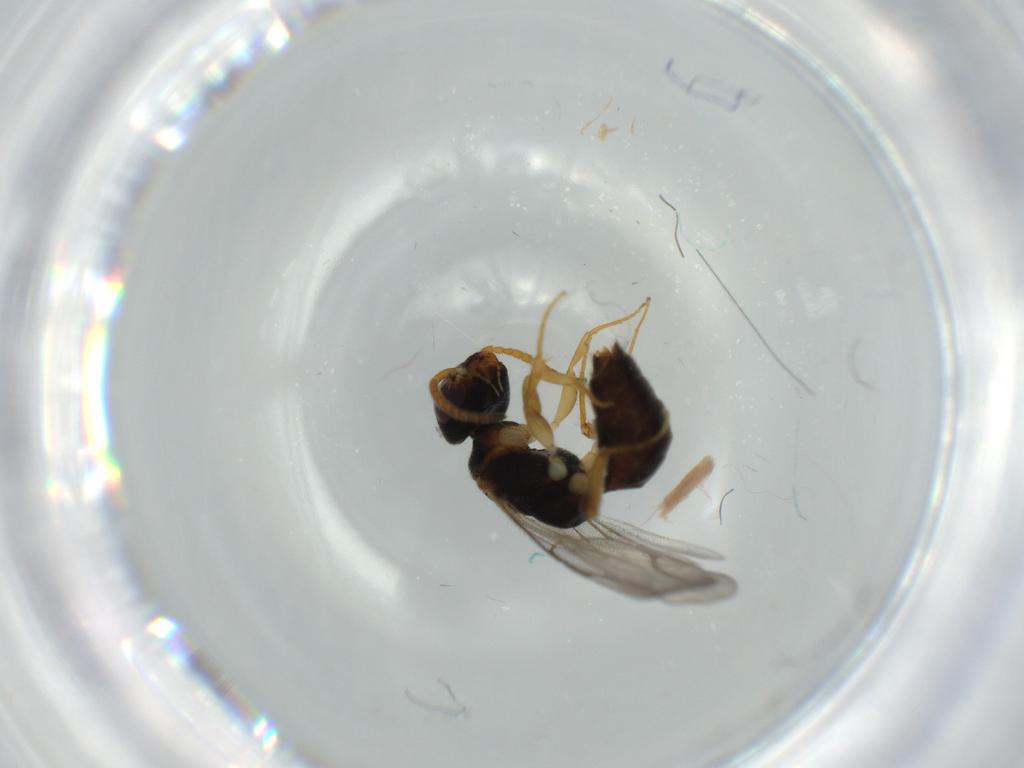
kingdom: Animalia
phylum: Arthropoda
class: Insecta
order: Hymenoptera
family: Bethylidae
